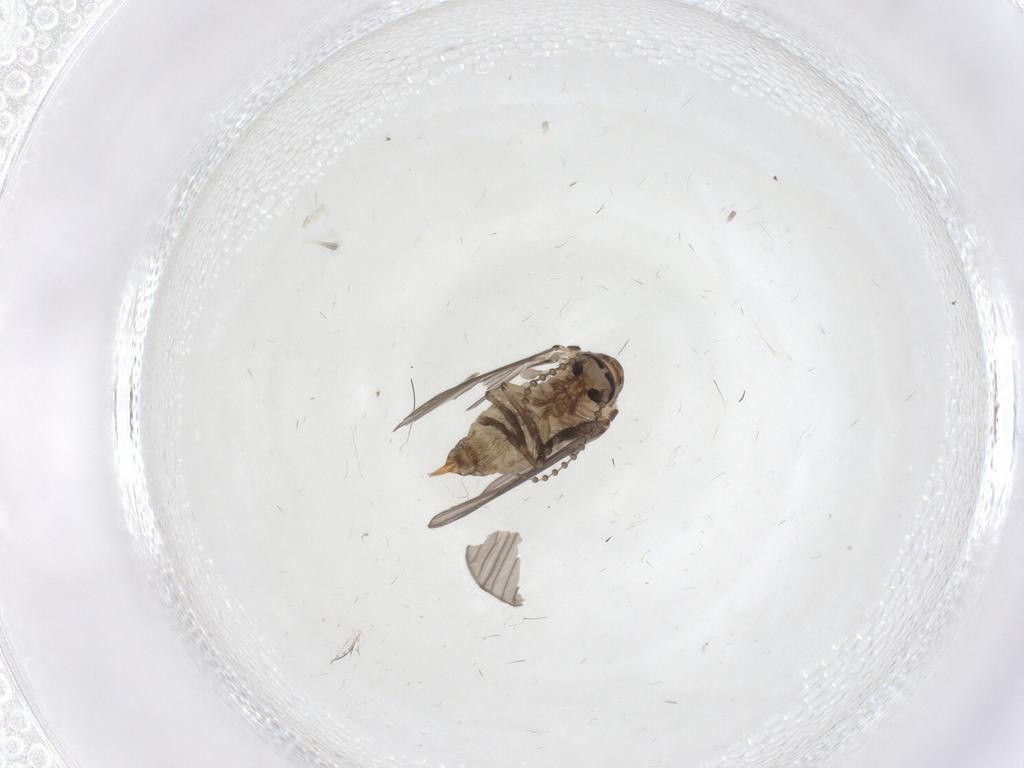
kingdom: Animalia
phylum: Arthropoda
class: Insecta
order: Diptera
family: Psychodidae
